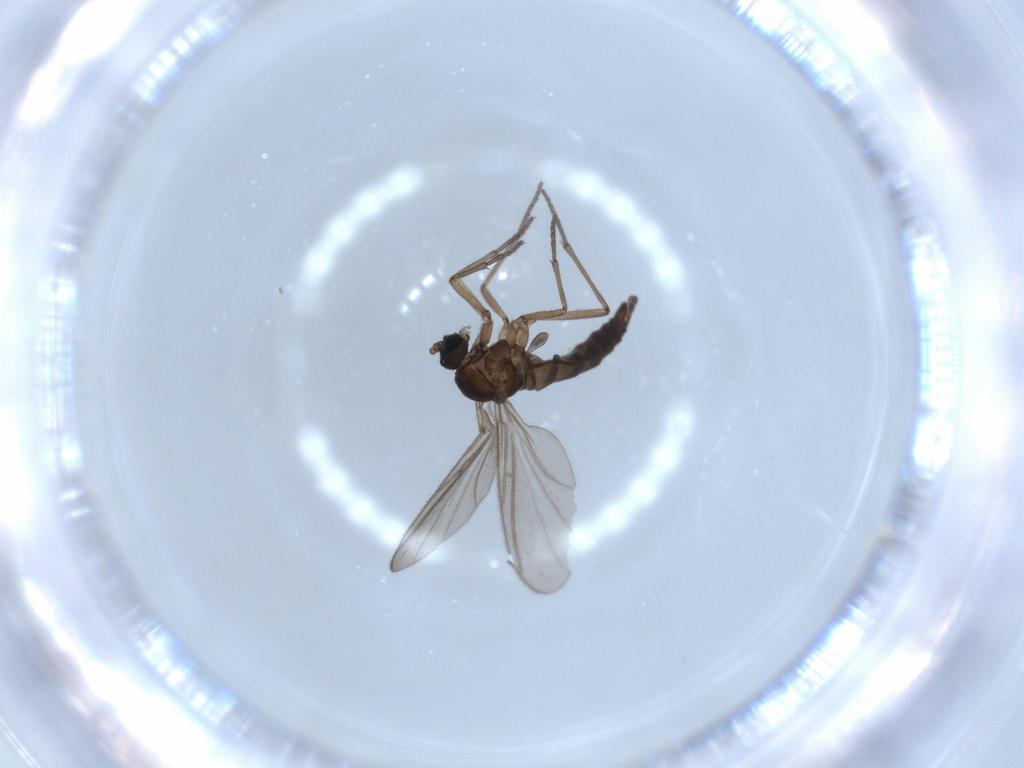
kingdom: Animalia
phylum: Arthropoda
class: Insecta
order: Diptera
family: Sciaridae
